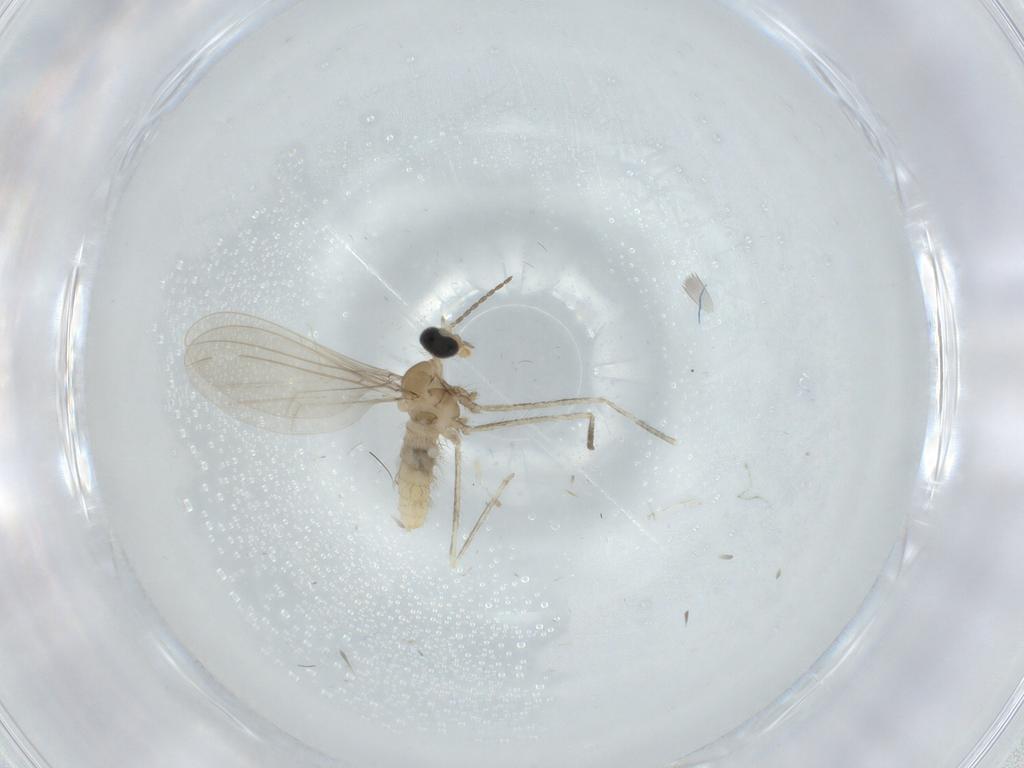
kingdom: Animalia
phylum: Arthropoda
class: Insecta
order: Diptera
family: Cecidomyiidae
